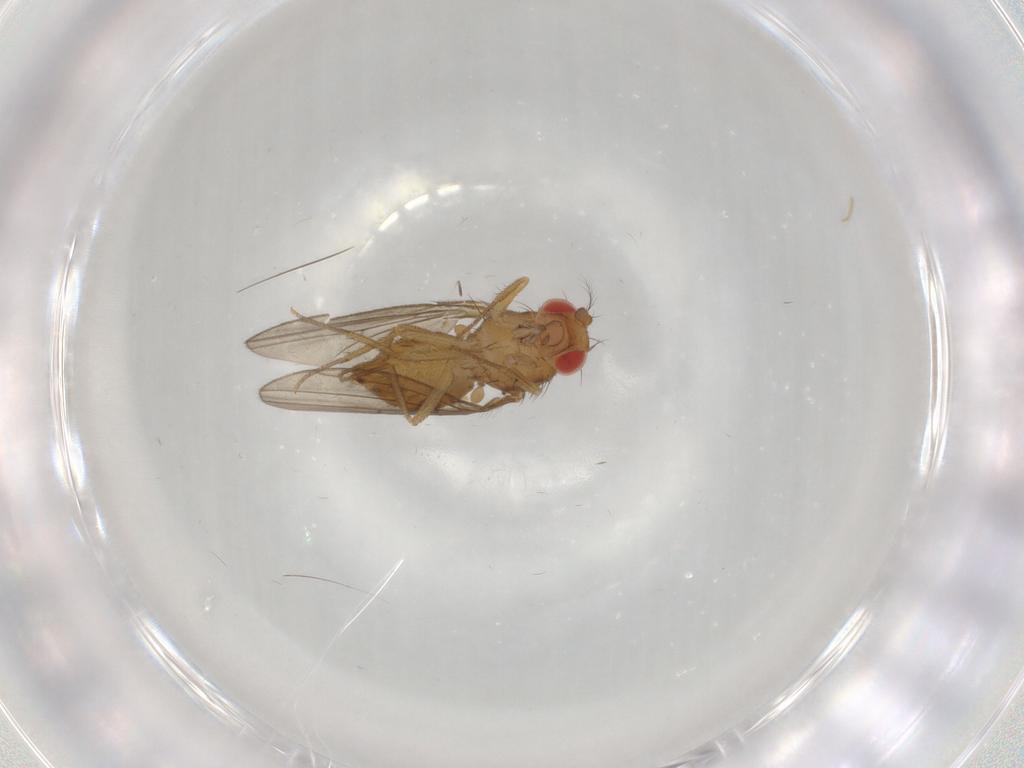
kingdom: Animalia
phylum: Arthropoda
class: Insecta
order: Diptera
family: Drosophilidae
